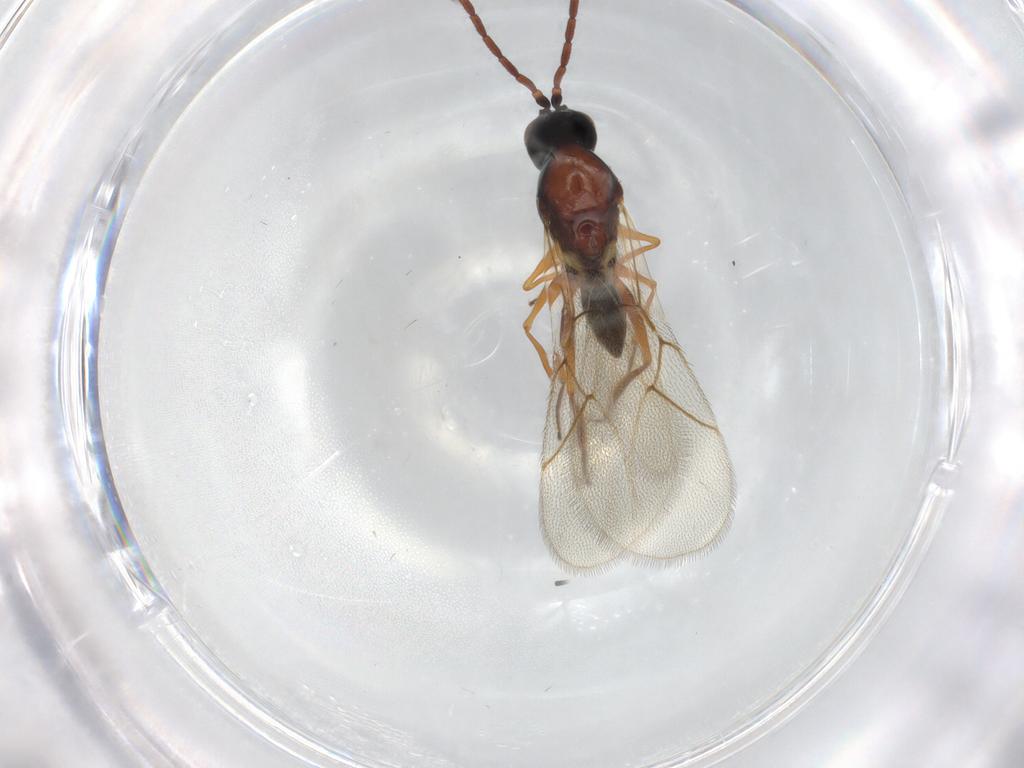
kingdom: Animalia
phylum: Arthropoda
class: Insecta
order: Hymenoptera
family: Figitidae
